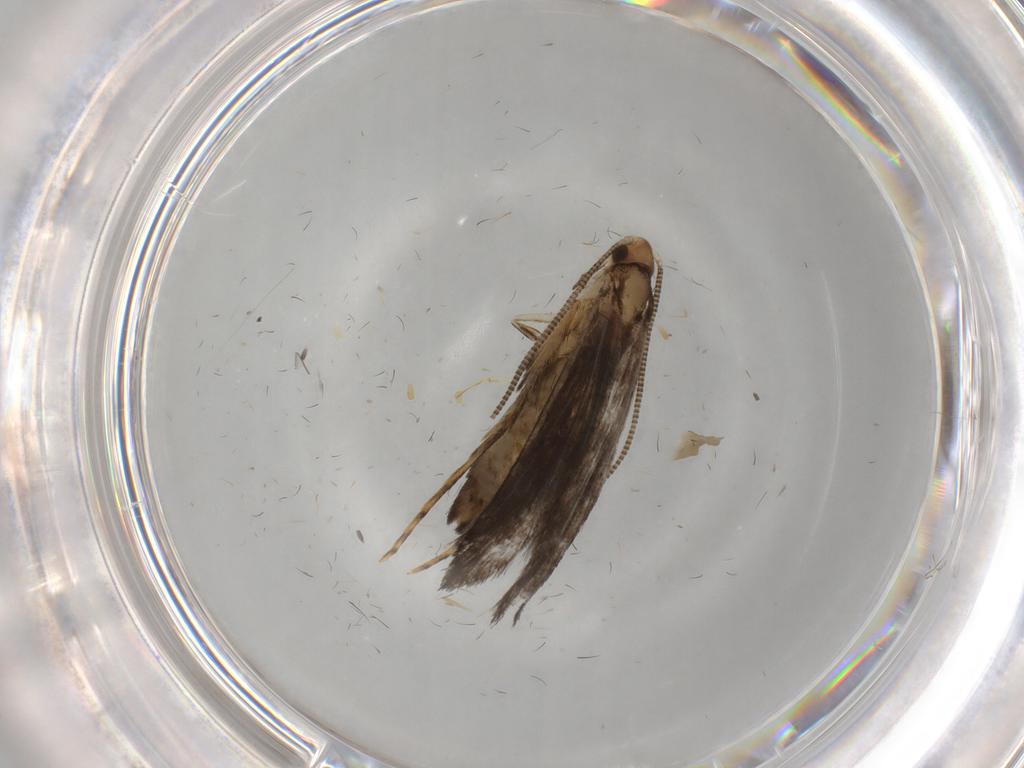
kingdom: Animalia
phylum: Arthropoda
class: Insecta
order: Lepidoptera
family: Tineidae
